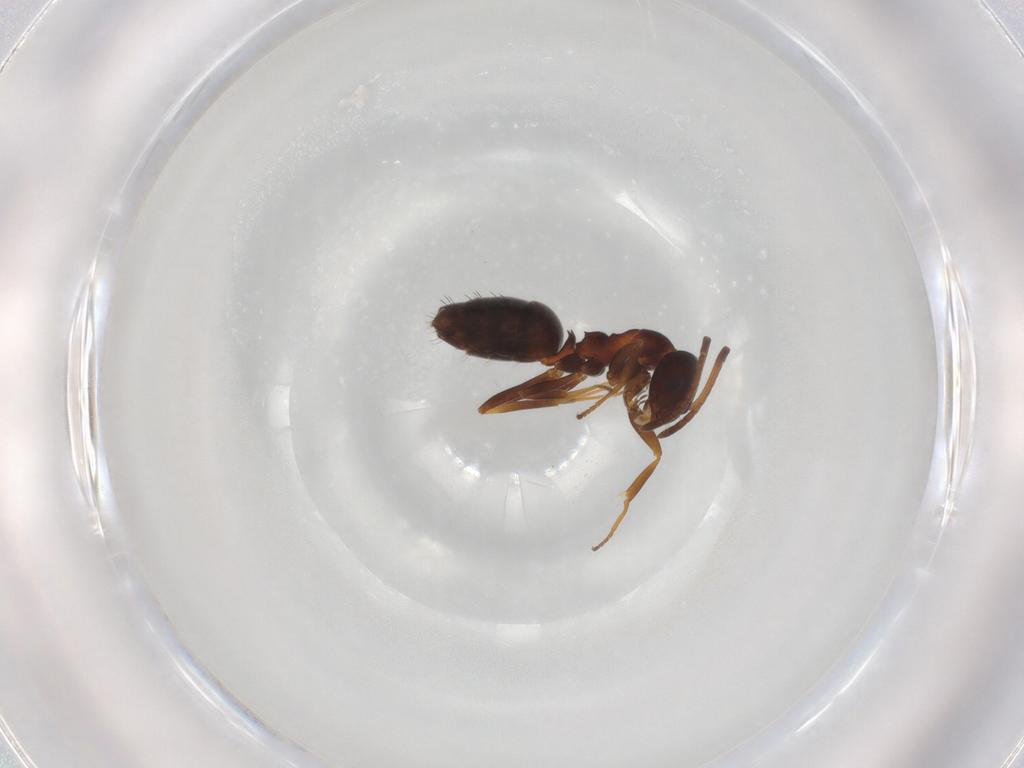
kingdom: Animalia
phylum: Arthropoda
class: Insecta
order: Hymenoptera
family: Formicidae
